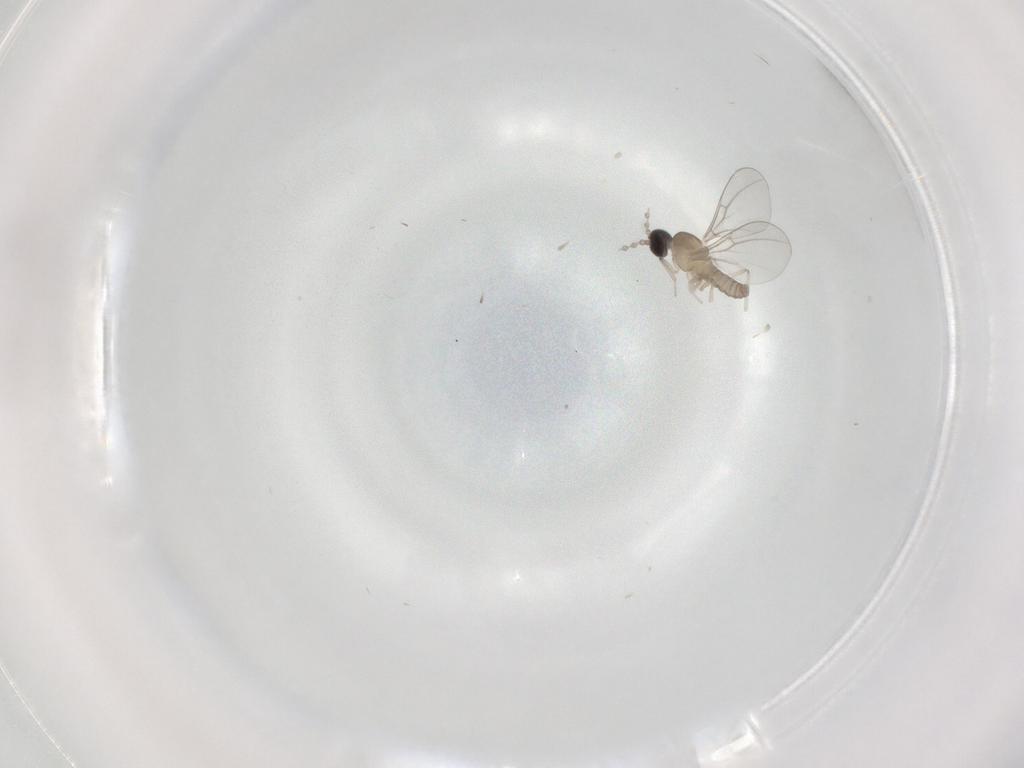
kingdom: Animalia
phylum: Arthropoda
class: Insecta
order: Diptera
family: Cecidomyiidae
